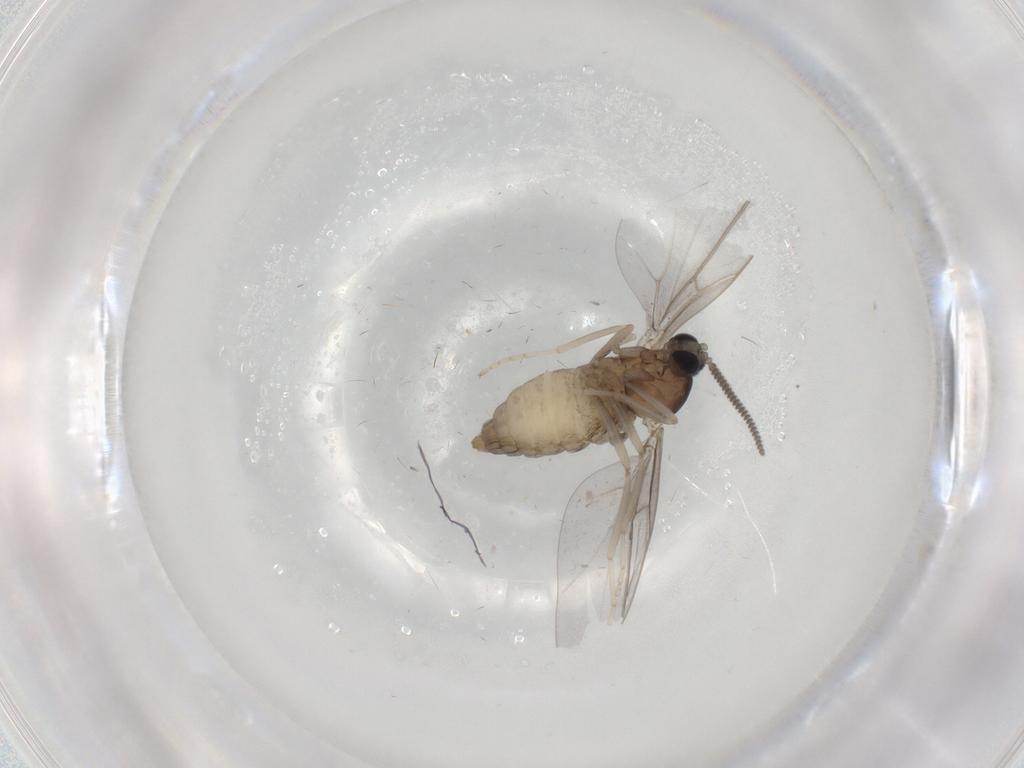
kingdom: Animalia
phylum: Arthropoda
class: Insecta
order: Diptera
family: Cecidomyiidae
